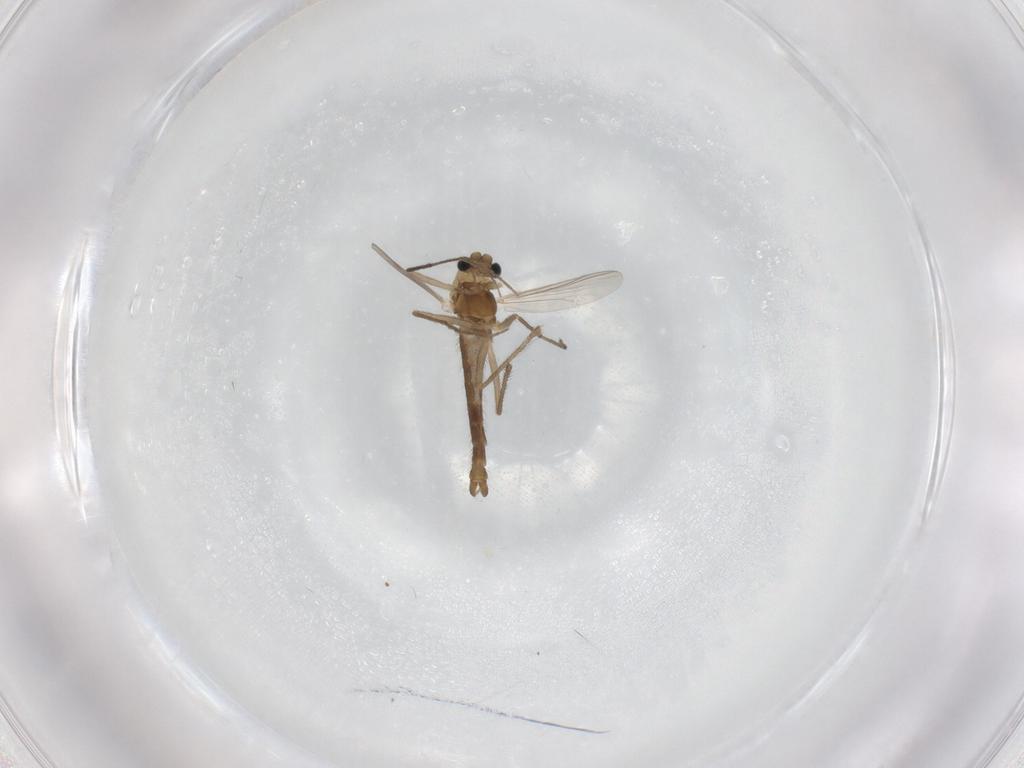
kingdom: Animalia
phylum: Arthropoda
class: Insecta
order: Diptera
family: Chironomidae
